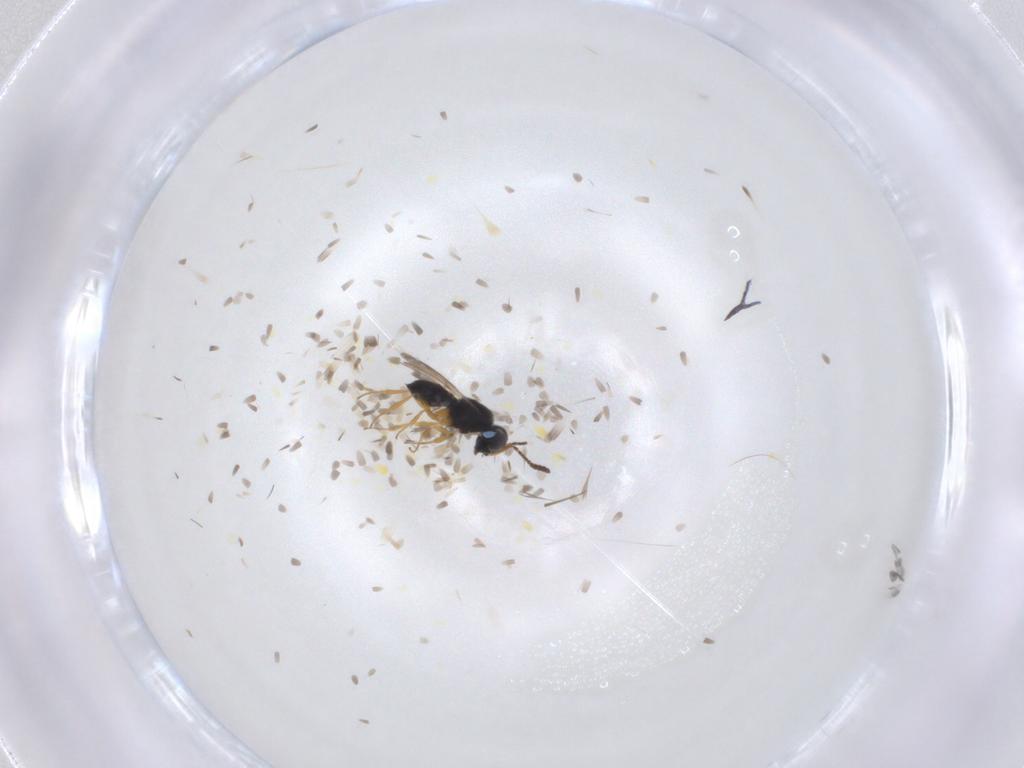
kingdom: Animalia
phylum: Arthropoda
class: Insecta
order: Hymenoptera
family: Scelionidae
